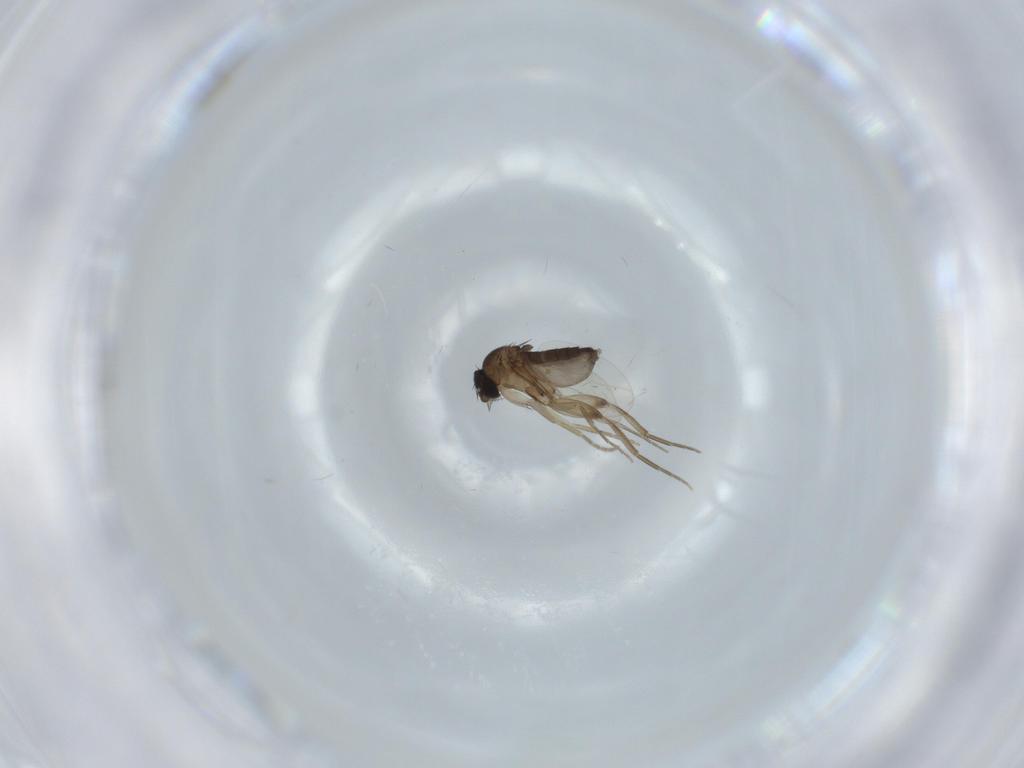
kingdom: Animalia
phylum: Arthropoda
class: Insecta
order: Diptera
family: Phoridae
